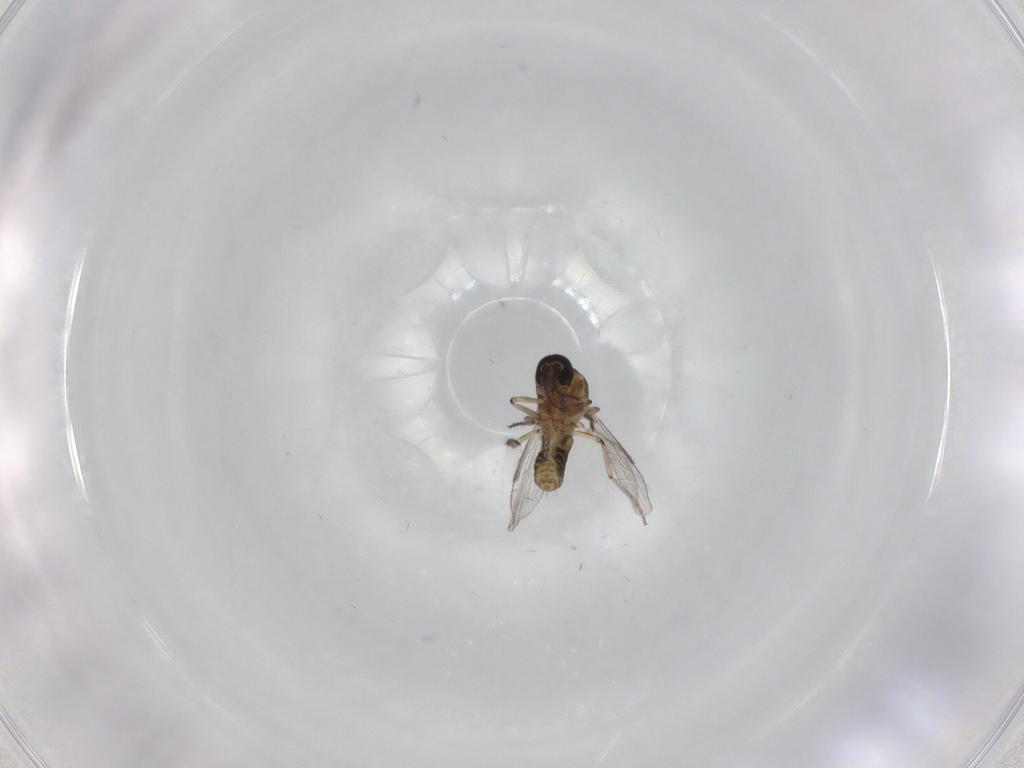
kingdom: Animalia
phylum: Arthropoda
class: Insecta
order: Diptera
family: Ceratopogonidae
